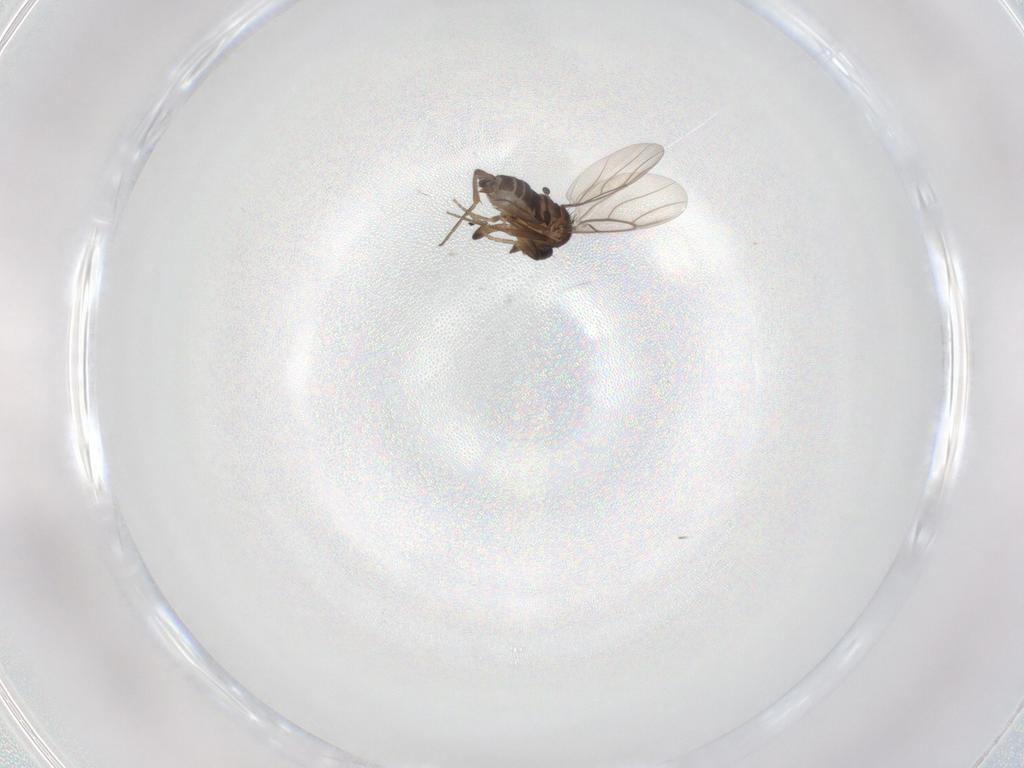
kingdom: Animalia
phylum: Arthropoda
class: Insecta
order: Diptera
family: Phoridae
